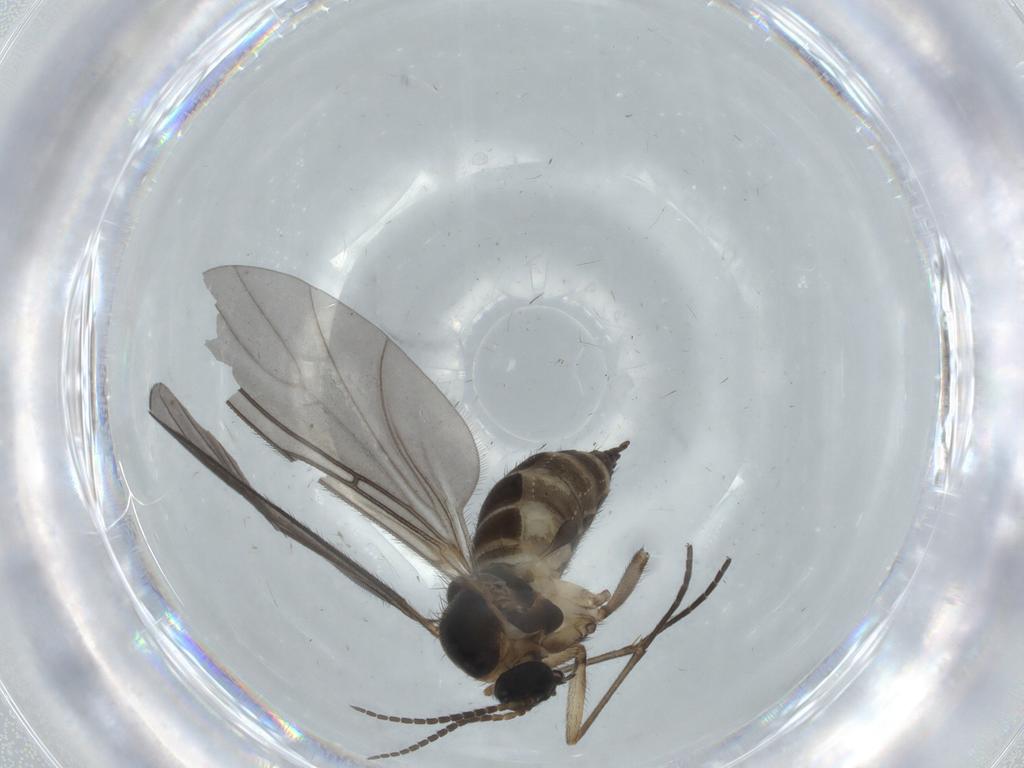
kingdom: Animalia
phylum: Arthropoda
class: Insecta
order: Diptera
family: Sciaridae
